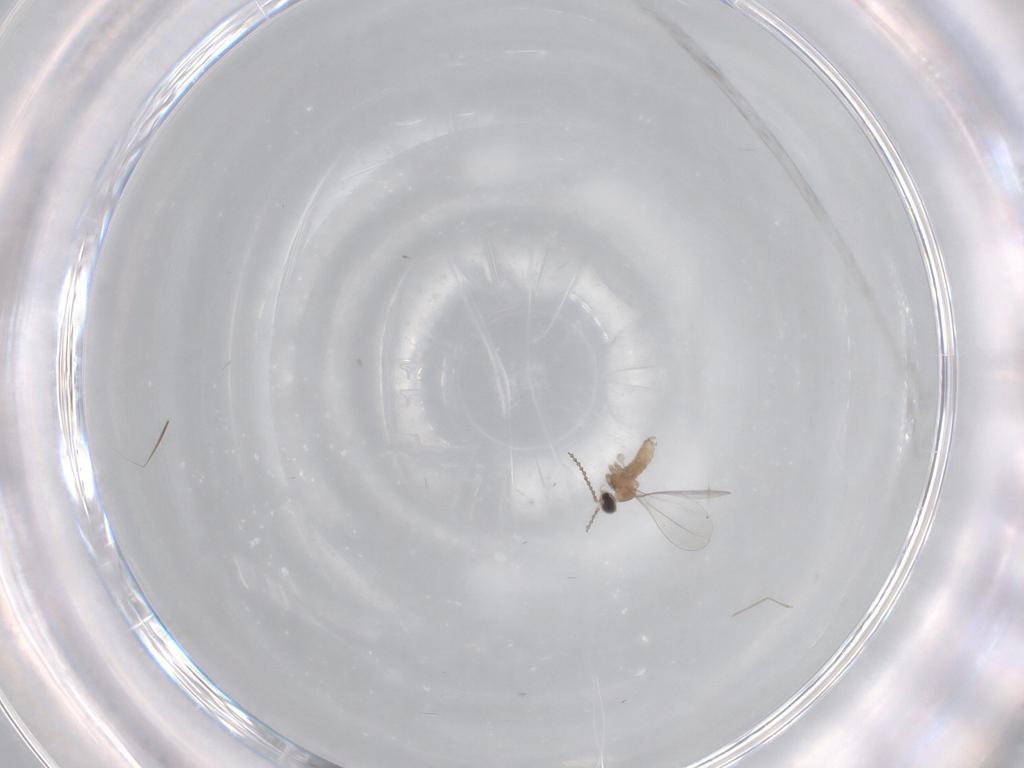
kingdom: Animalia
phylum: Arthropoda
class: Insecta
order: Diptera
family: Cecidomyiidae
